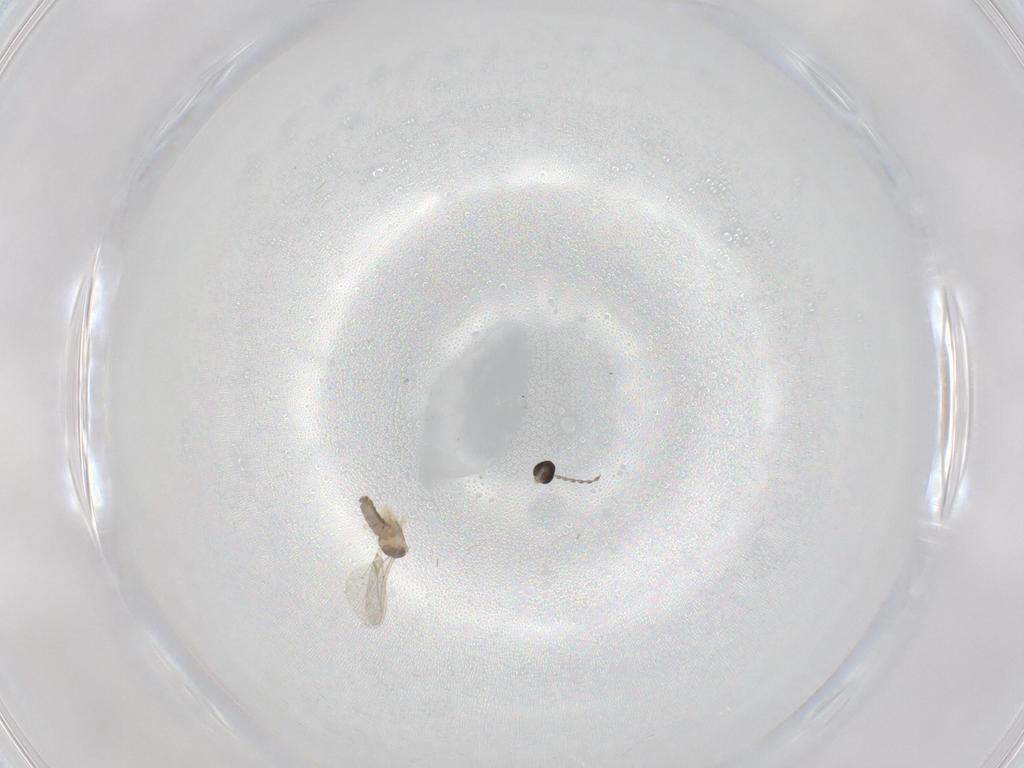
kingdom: Animalia
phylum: Arthropoda
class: Insecta
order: Diptera
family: Cecidomyiidae
